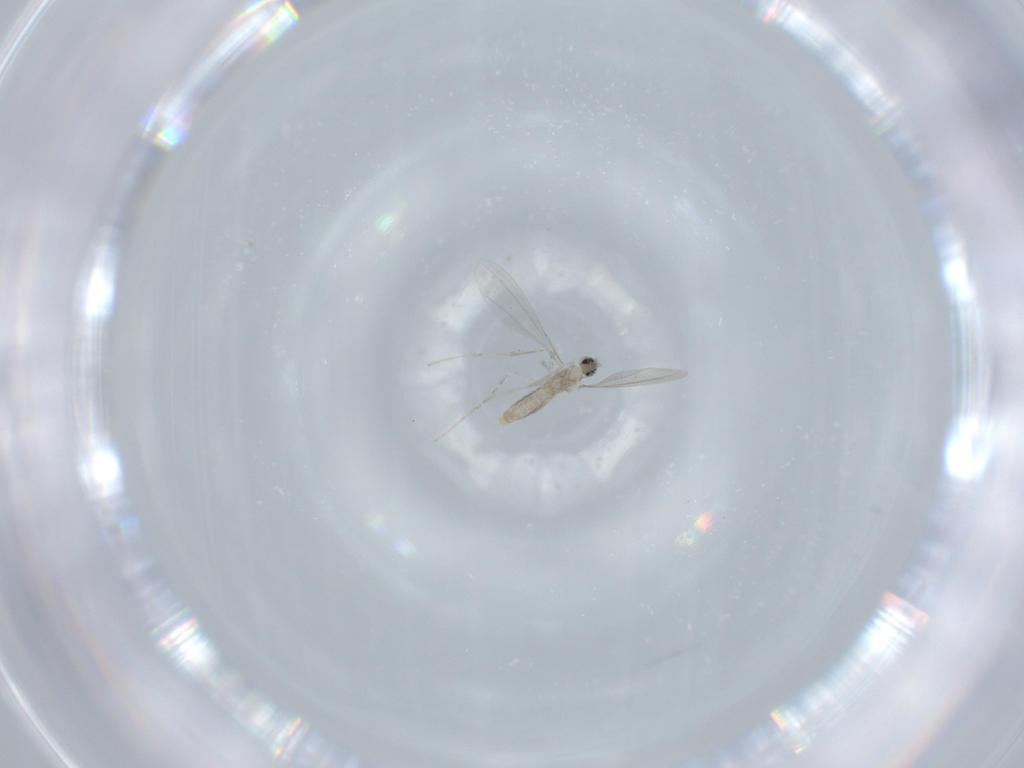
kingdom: Animalia
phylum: Arthropoda
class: Insecta
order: Diptera
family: Cecidomyiidae
